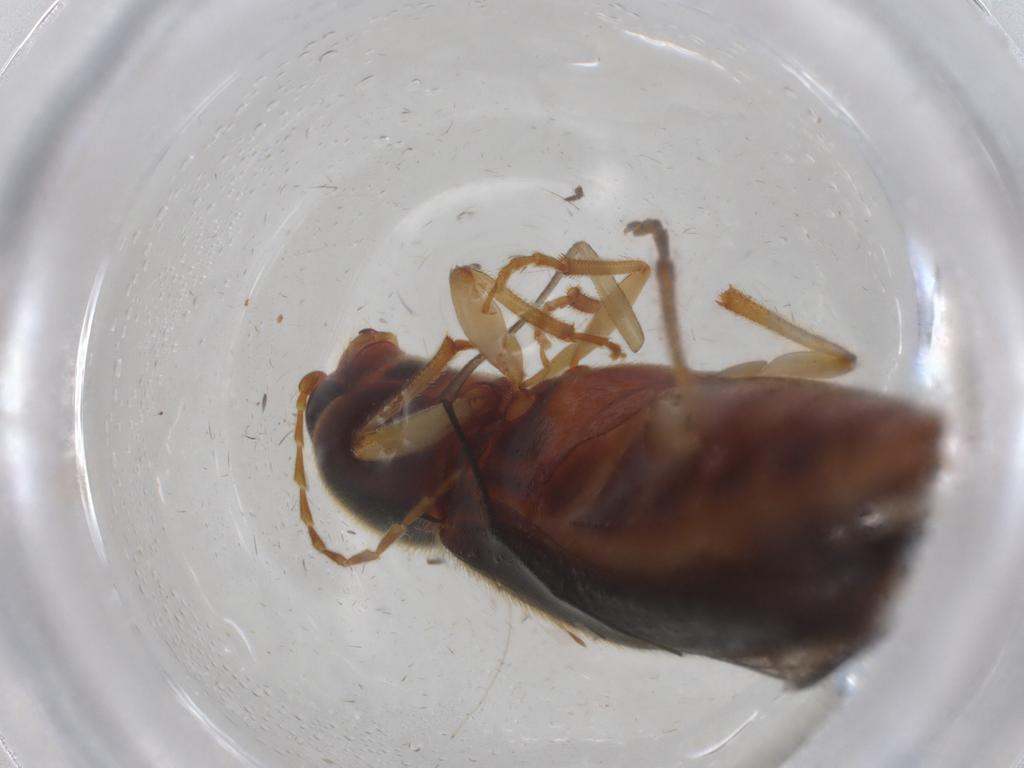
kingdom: Animalia
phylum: Arthropoda
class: Insecta
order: Coleoptera
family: Elateridae
